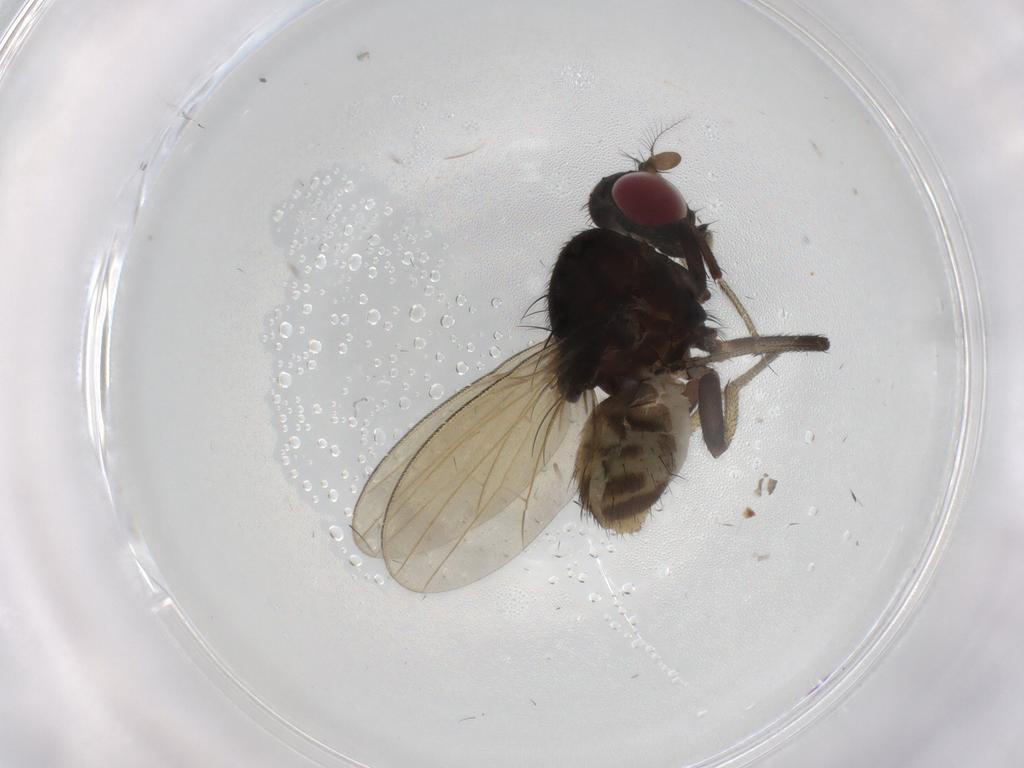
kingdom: Animalia
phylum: Arthropoda
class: Insecta
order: Diptera
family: Lauxaniidae
